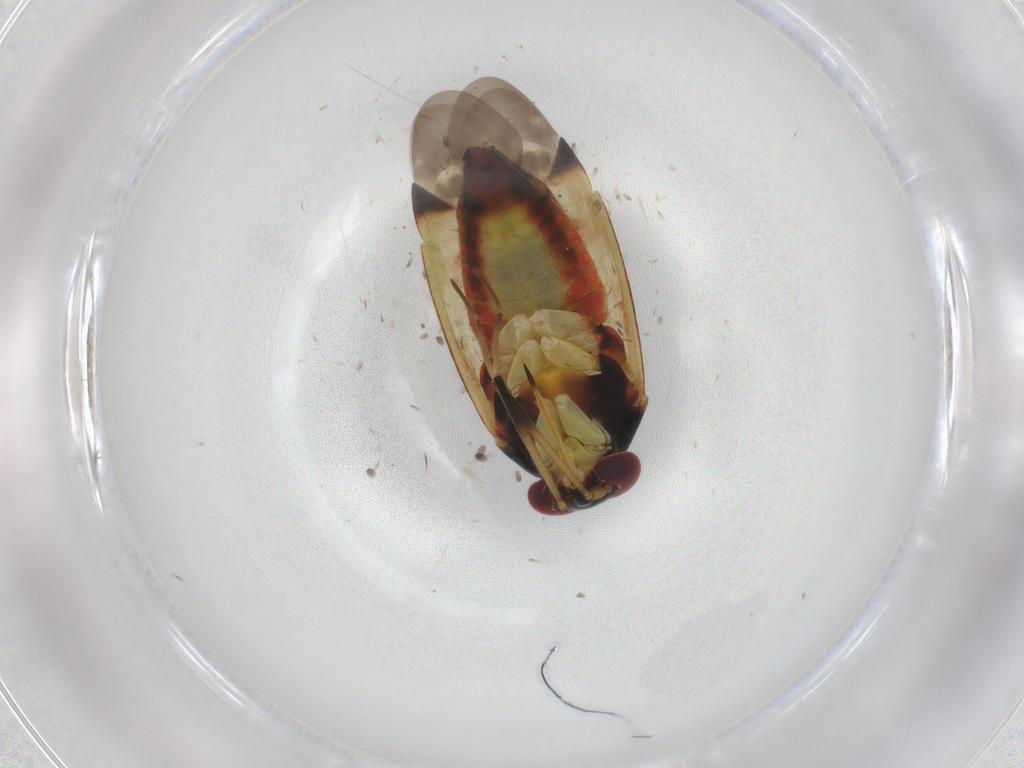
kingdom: Animalia
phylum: Arthropoda
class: Insecta
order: Hemiptera
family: Miridae
